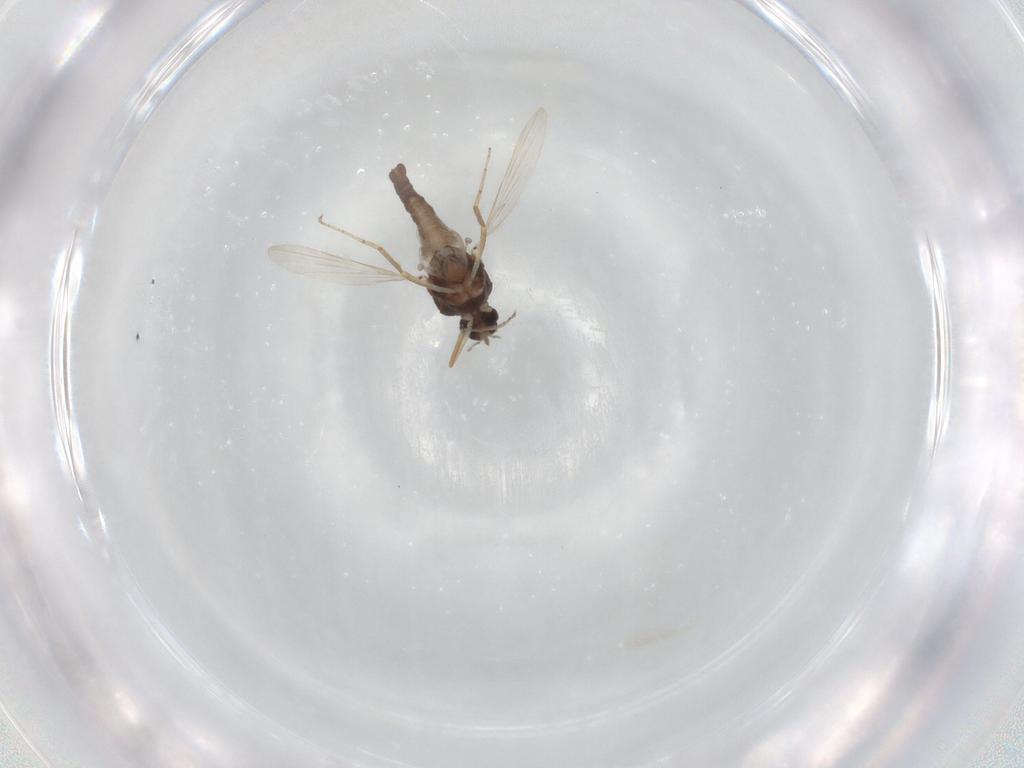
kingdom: Animalia
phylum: Arthropoda
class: Insecta
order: Diptera
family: Ceratopogonidae
